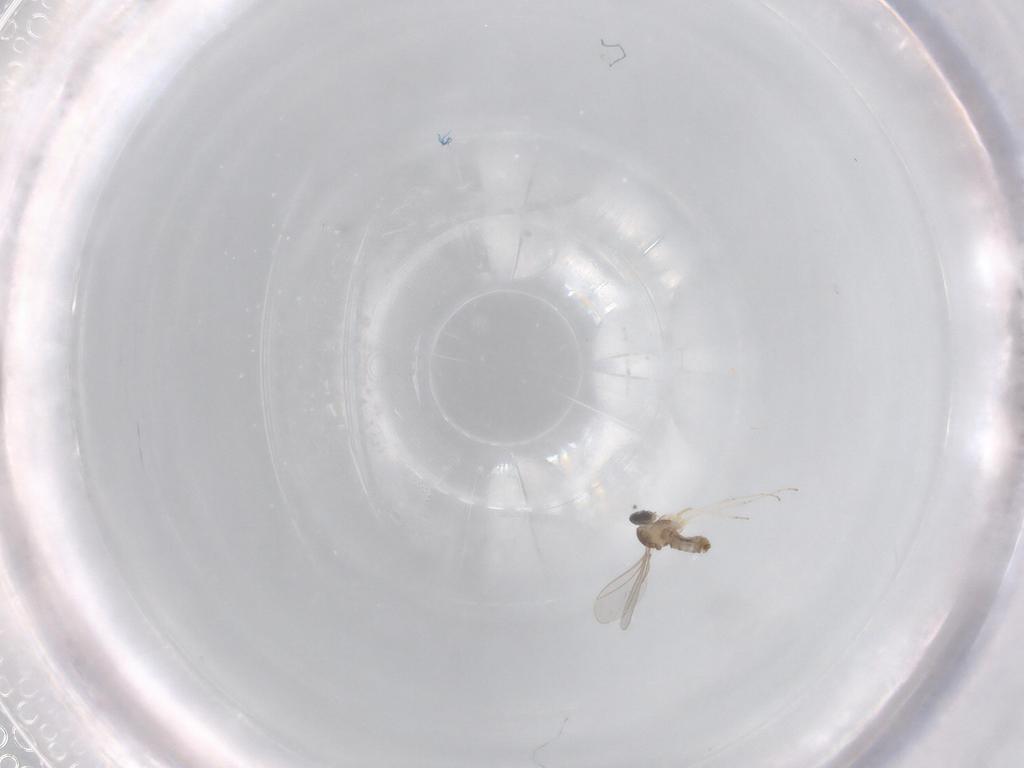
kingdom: Animalia
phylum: Arthropoda
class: Insecta
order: Diptera
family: Cecidomyiidae
